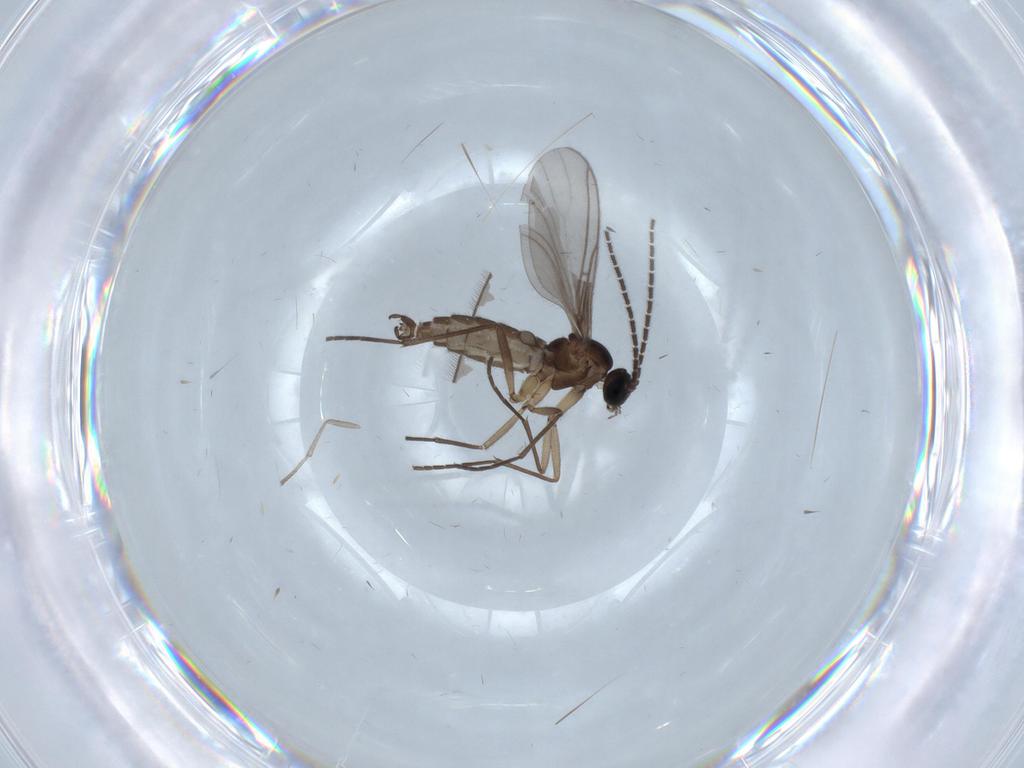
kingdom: Animalia
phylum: Arthropoda
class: Insecta
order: Diptera
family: Sciaridae
